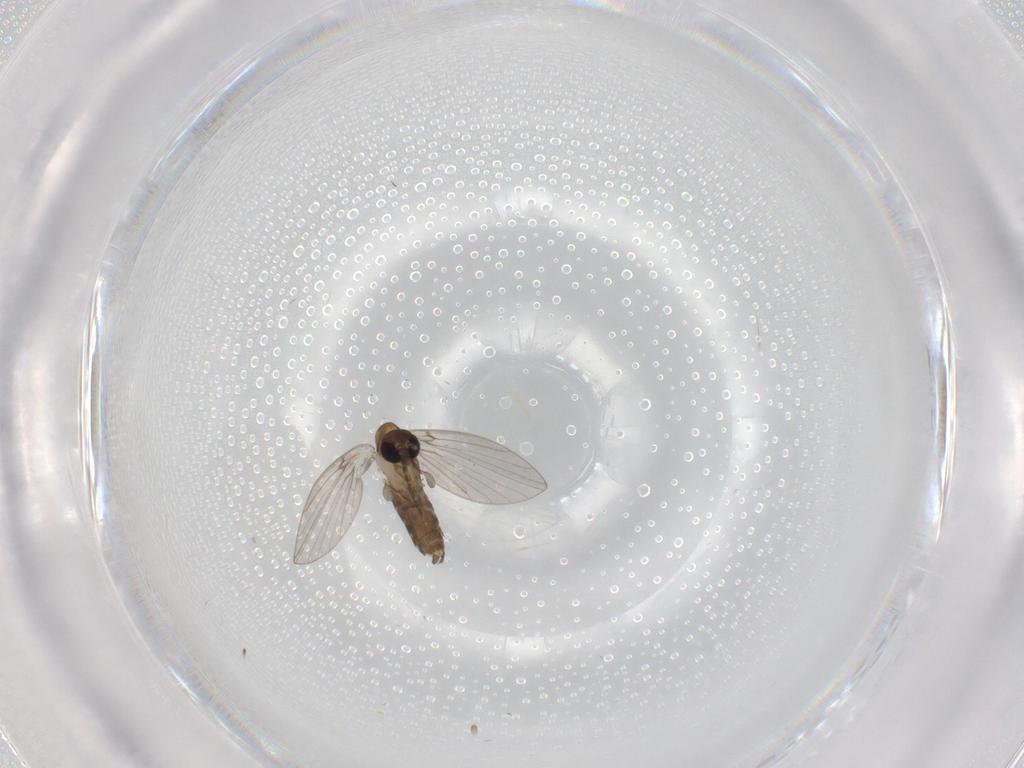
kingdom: Animalia
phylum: Arthropoda
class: Insecta
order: Diptera
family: Psychodidae
